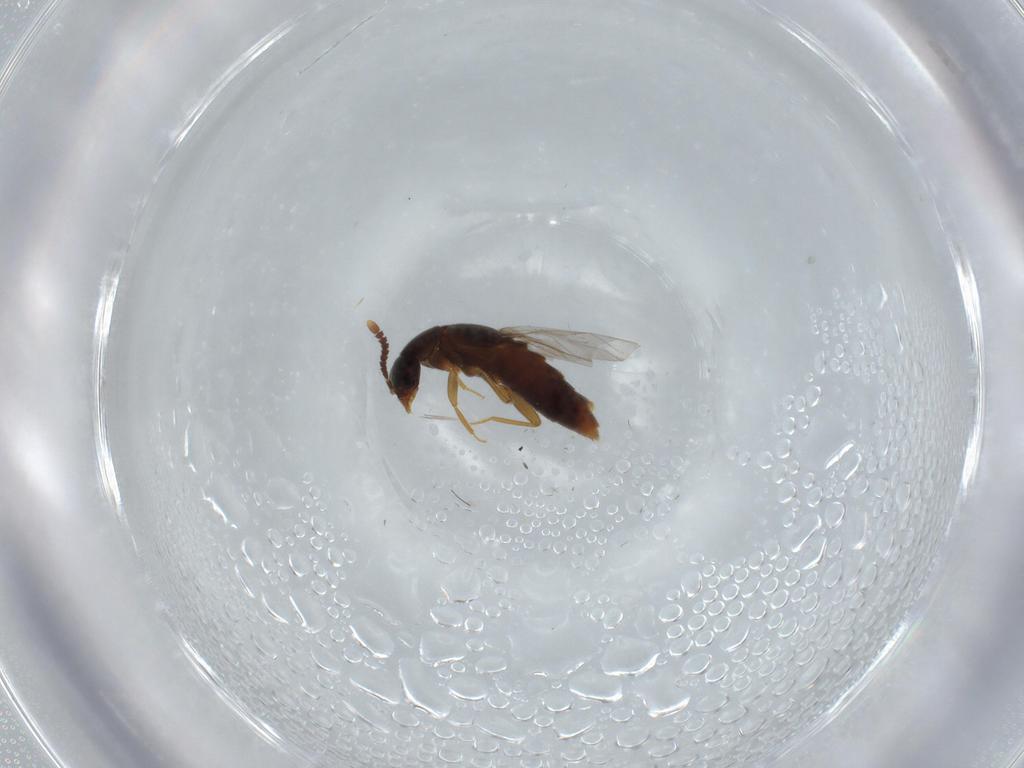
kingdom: Animalia
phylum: Arthropoda
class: Insecta
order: Coleoptera
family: Staphylinidae
